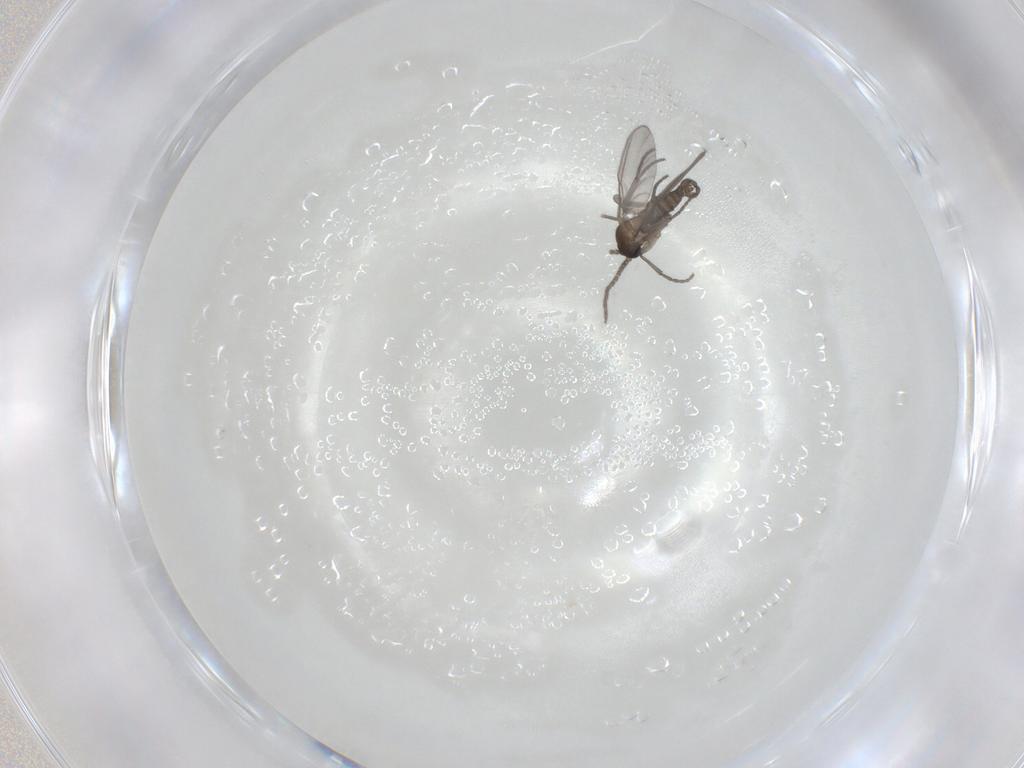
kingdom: Animalia
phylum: Arthropoda
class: Insecta
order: Diptera
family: Sciaridae
